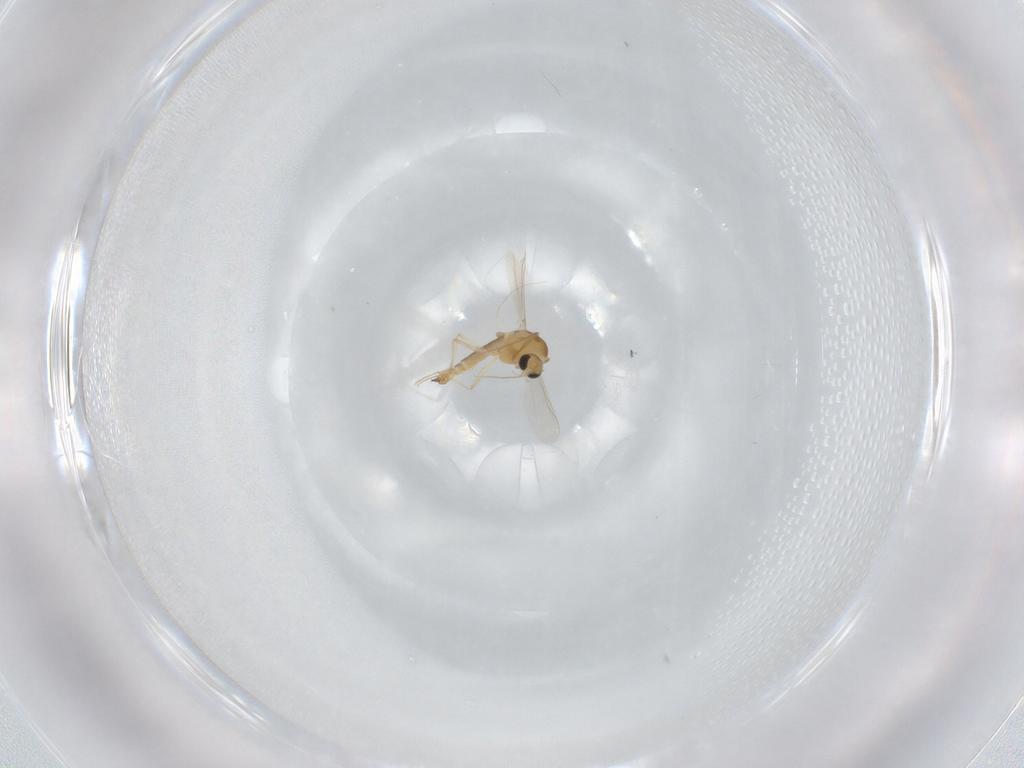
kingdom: Animalia
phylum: Arthropoda
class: Insecta
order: Diptera
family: Chironomidae
